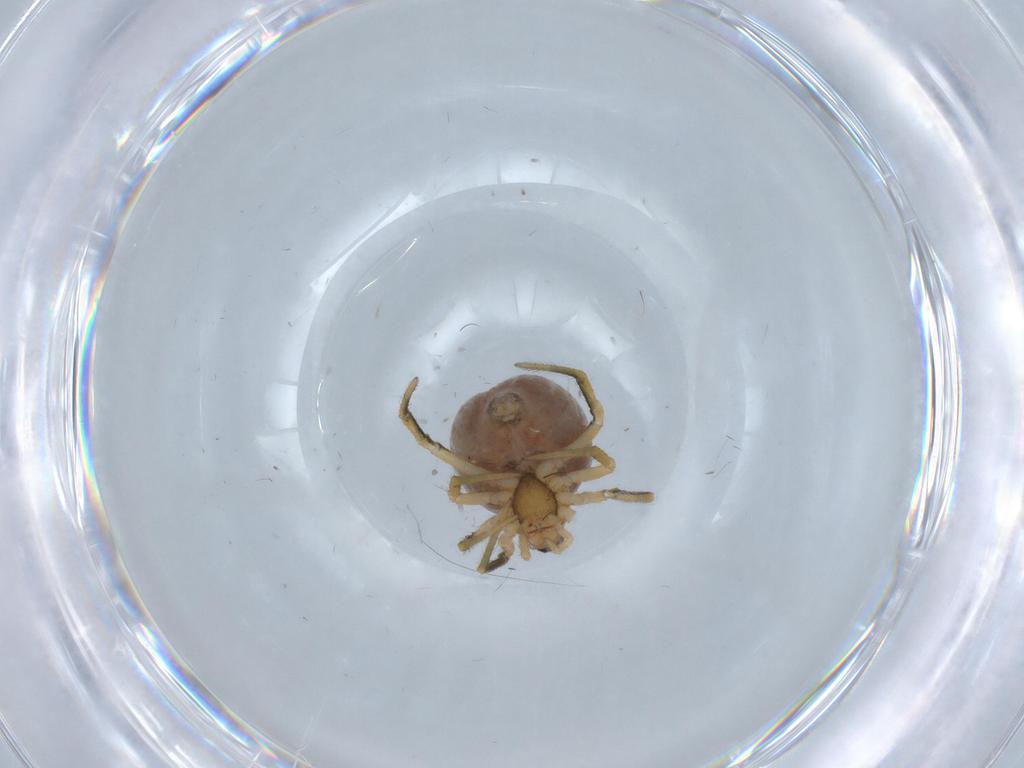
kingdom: Animalia
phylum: Arthropoda
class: Arachnida
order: Araneae
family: Theridiidae
